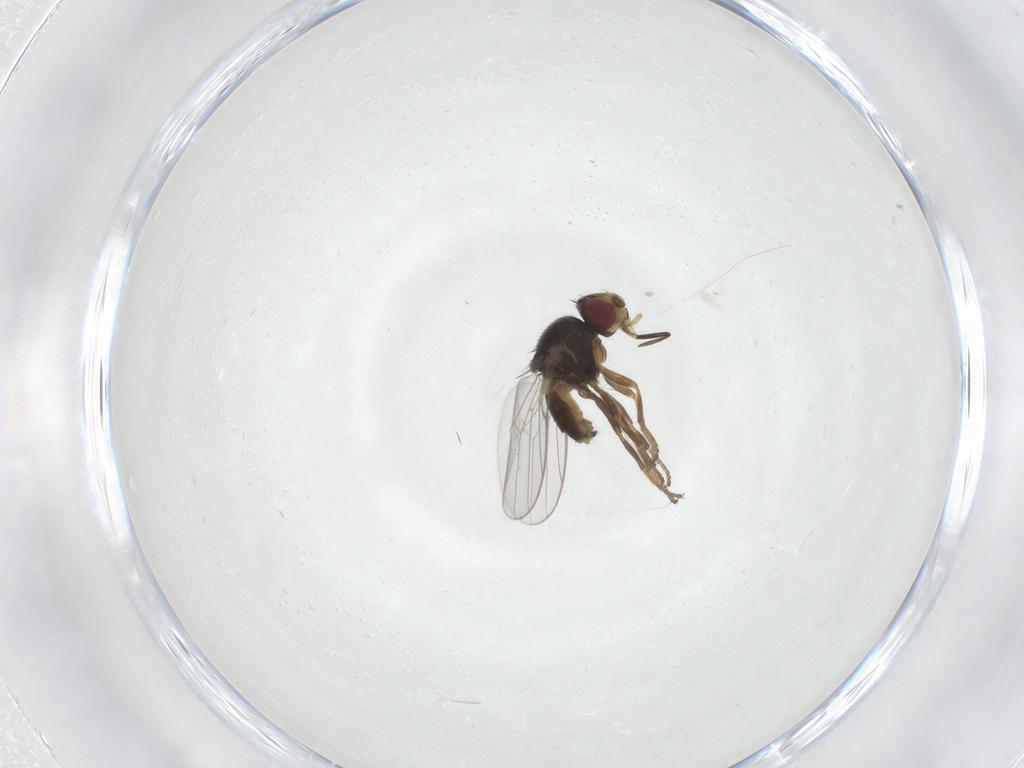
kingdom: Animalia
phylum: Arthropoda
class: Insecta
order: Diptera
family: Chloropidae
